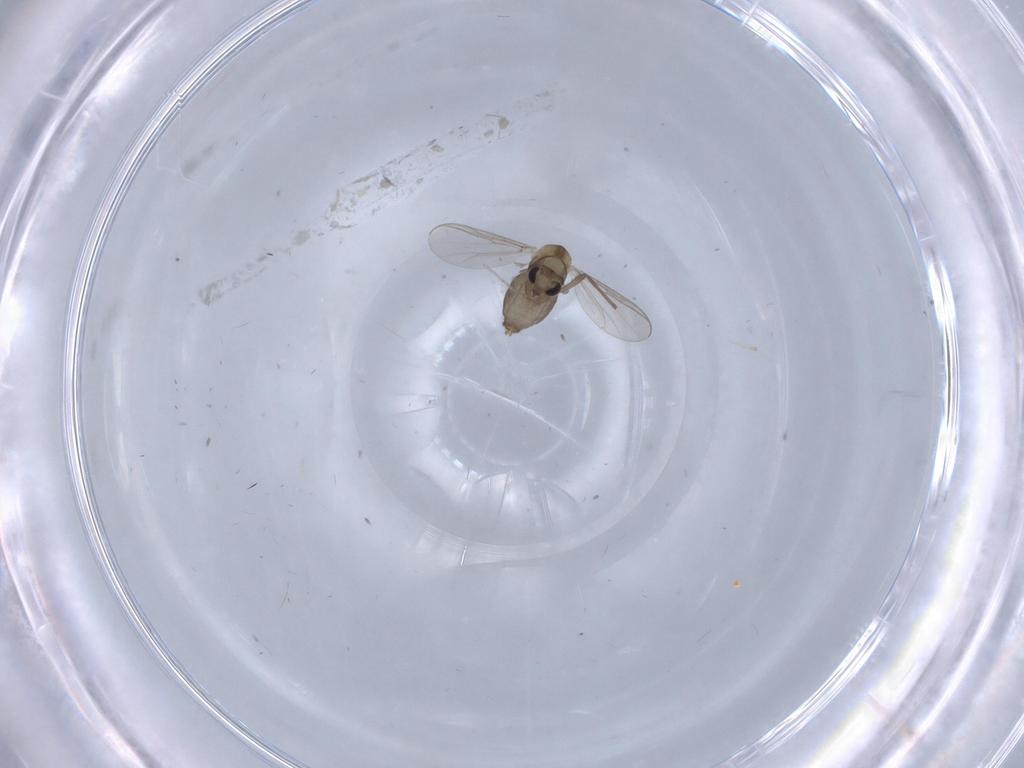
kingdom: Animalia
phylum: Arthropoda
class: Insecta
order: Diptera
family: Chironomidae
